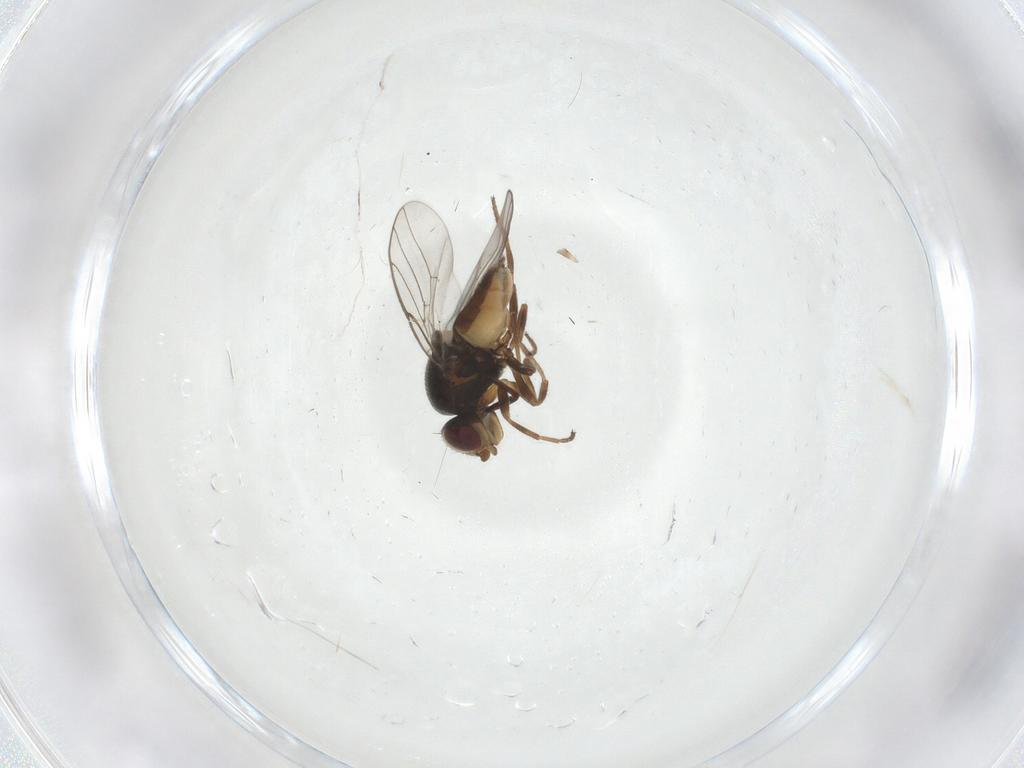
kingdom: Animalia
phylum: Arthropoda
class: Insecta
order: Diptera
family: Chloropidae
